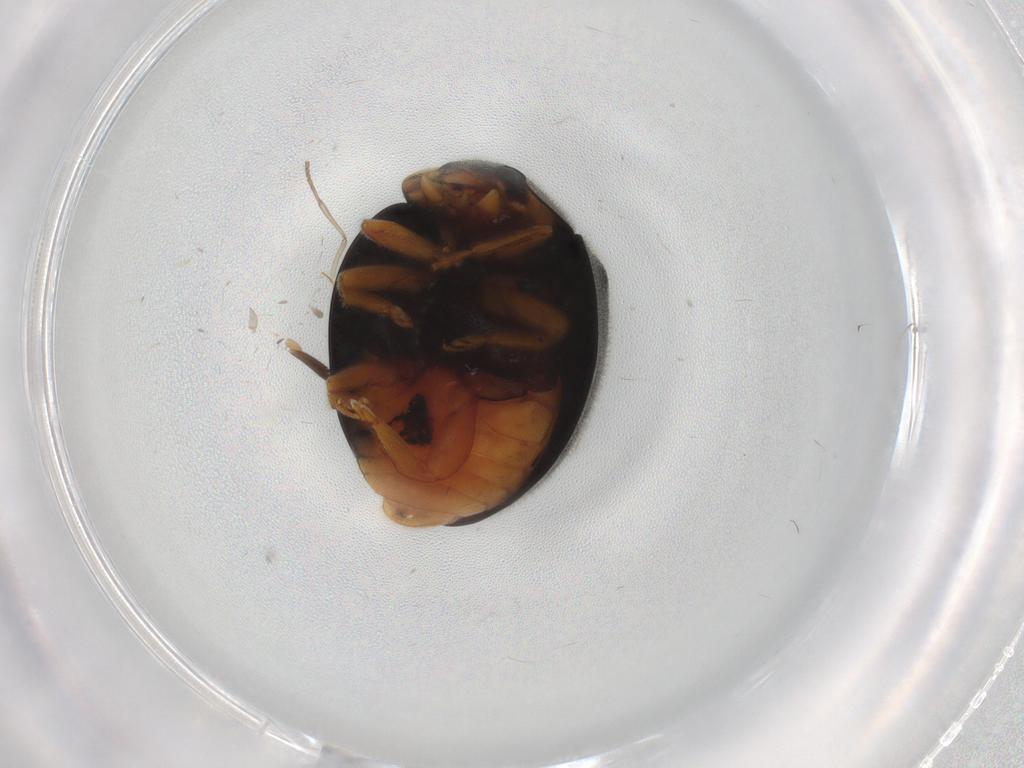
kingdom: Animalia
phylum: Arthropoda
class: Insecta
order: Coleoptera
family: Staphylinidae
